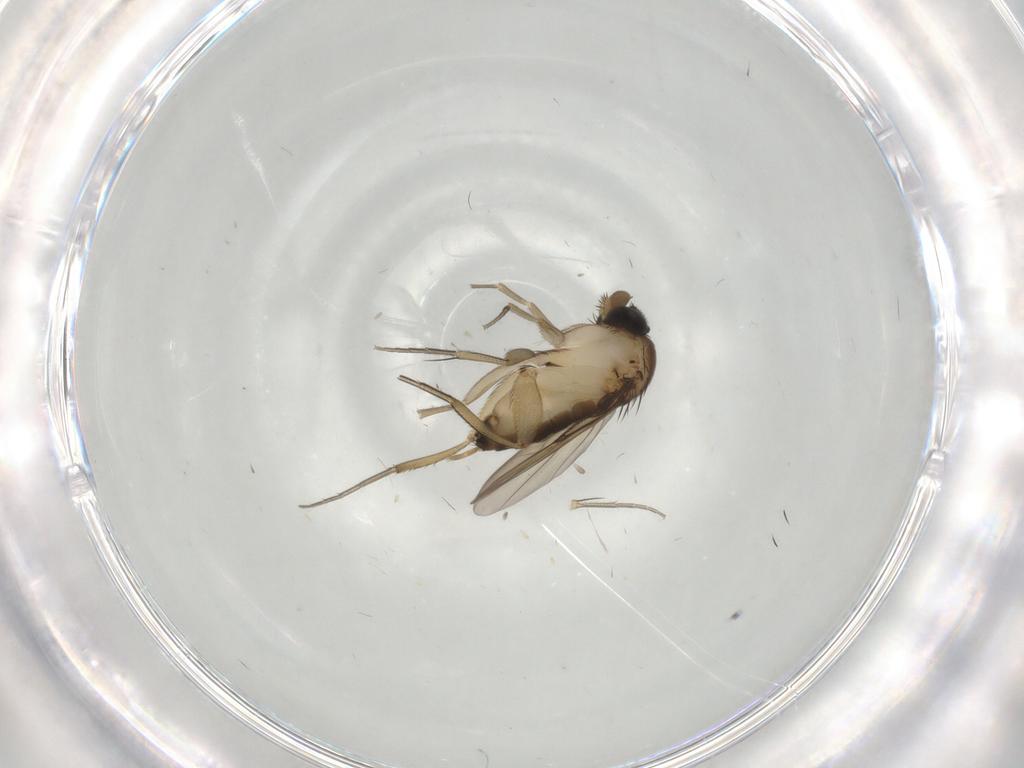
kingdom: Animalia
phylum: Arthropoda
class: Insecta
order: Diptera
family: Phoridae
